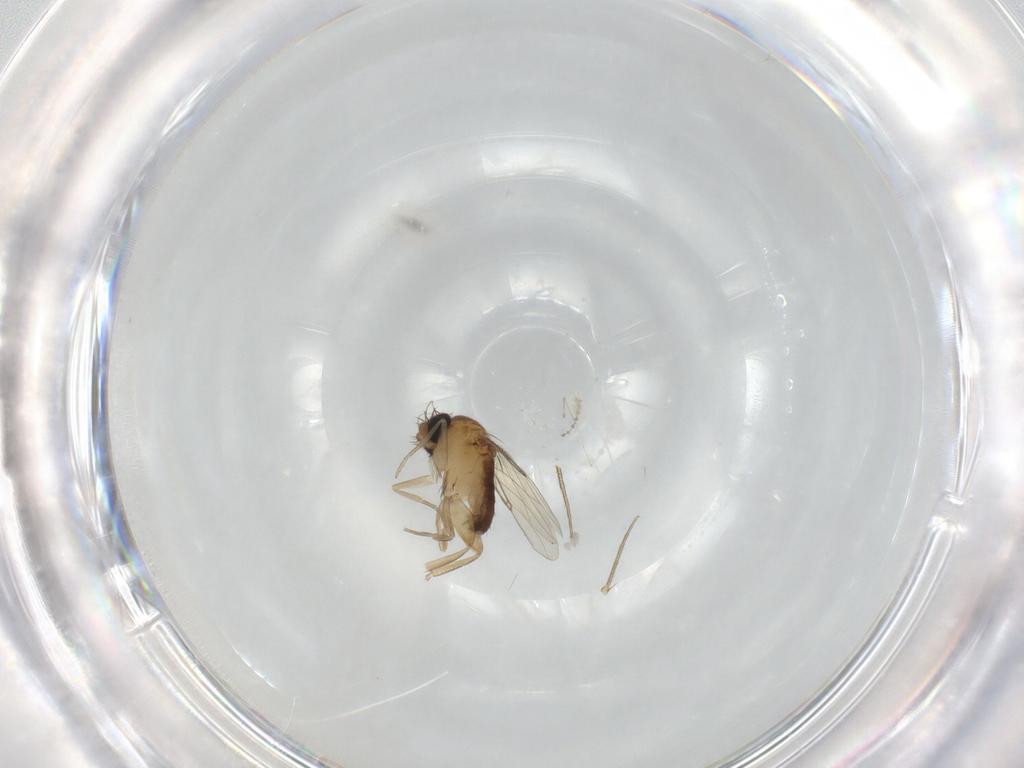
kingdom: Animalia
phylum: Arthropoda
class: Insecta
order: Diptera
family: Phoridae
